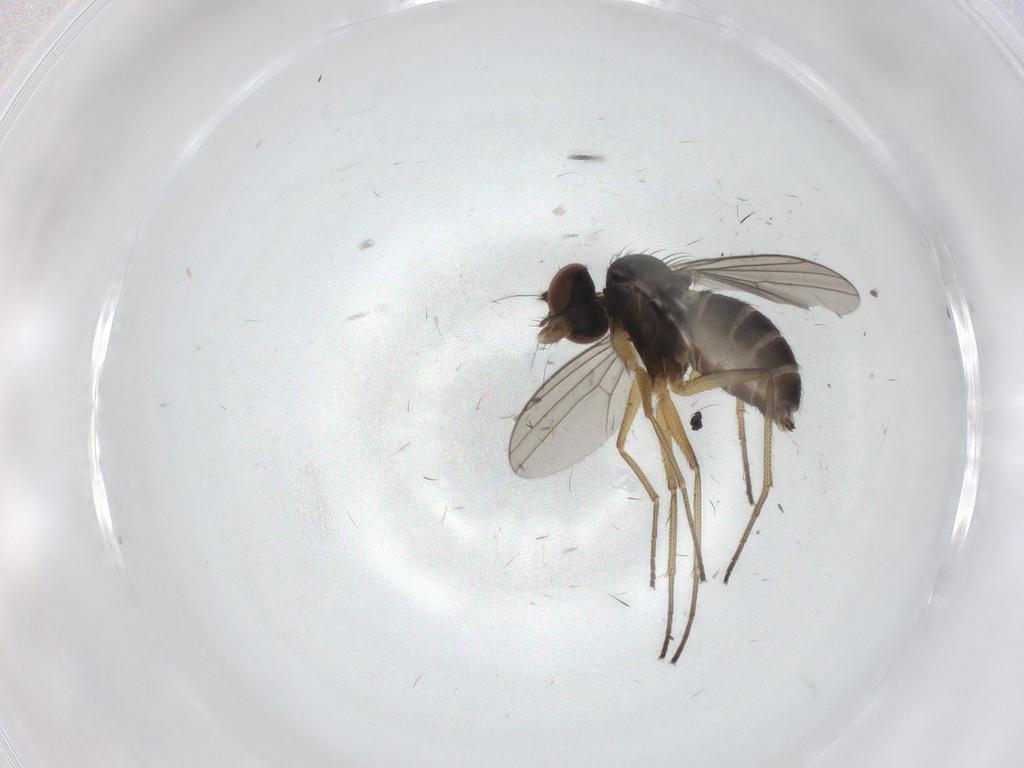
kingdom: Animalia
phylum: Arthropoda
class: Insecta
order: Diptera
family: Dolichopodidae
